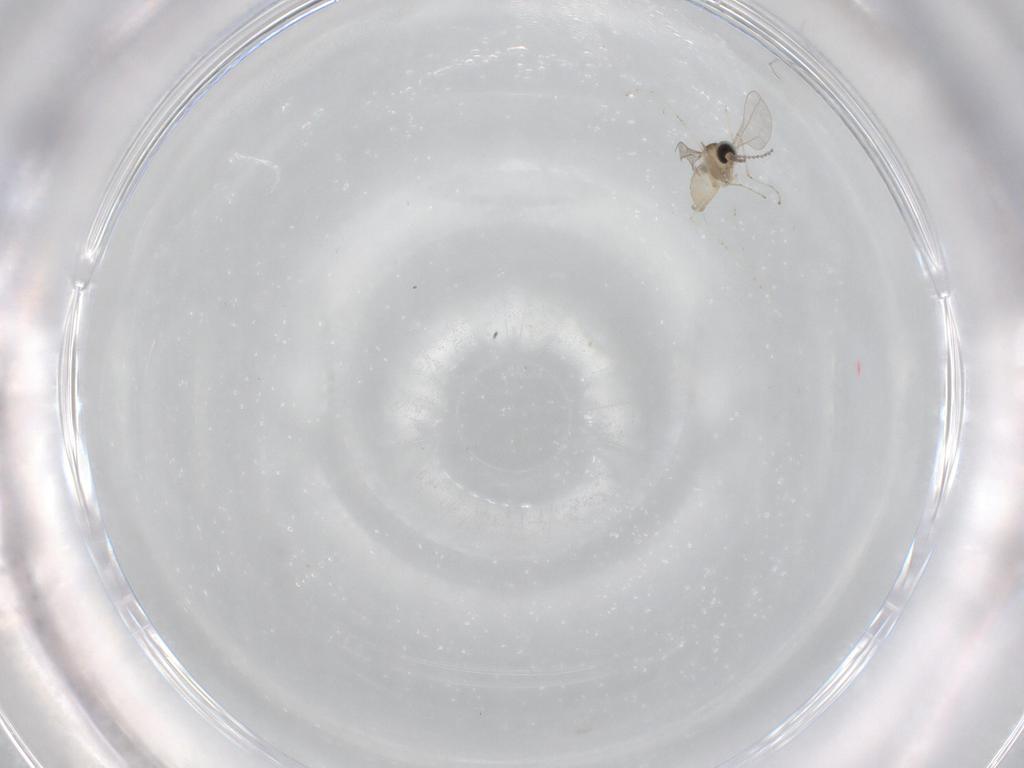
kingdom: Animalia
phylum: Arthropoda
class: Insecta
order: Diptera
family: Cecidomyiidae
